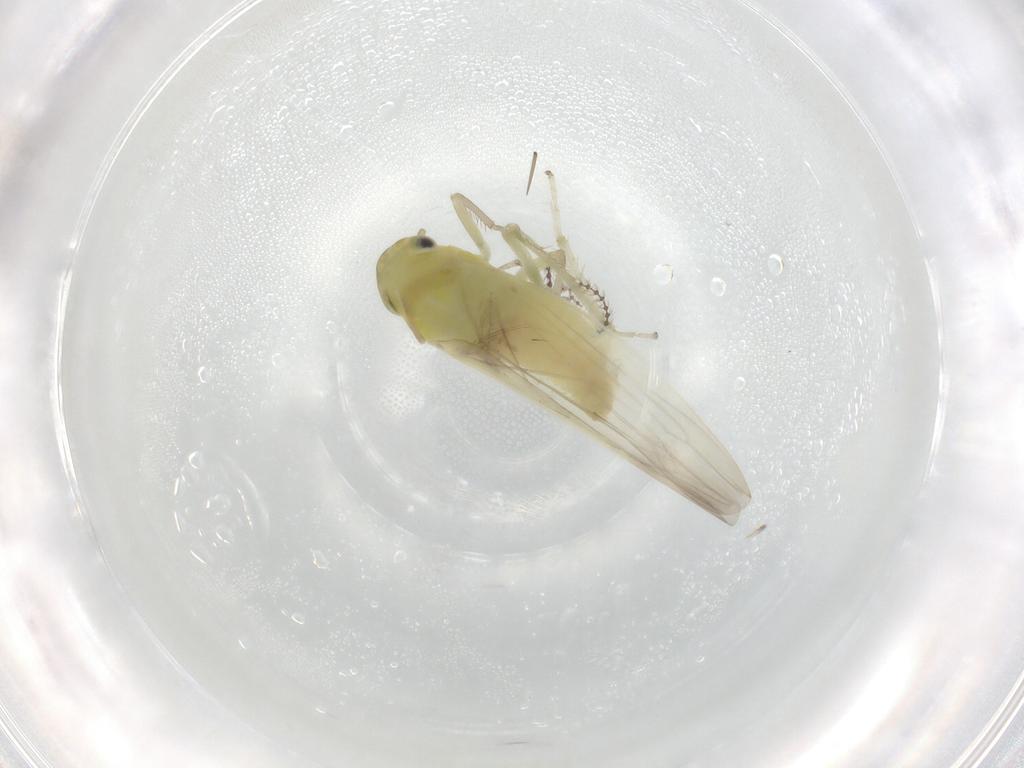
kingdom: Animalia
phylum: Arthropoda
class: Insecta
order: Hemiptera
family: Cicadellidae
